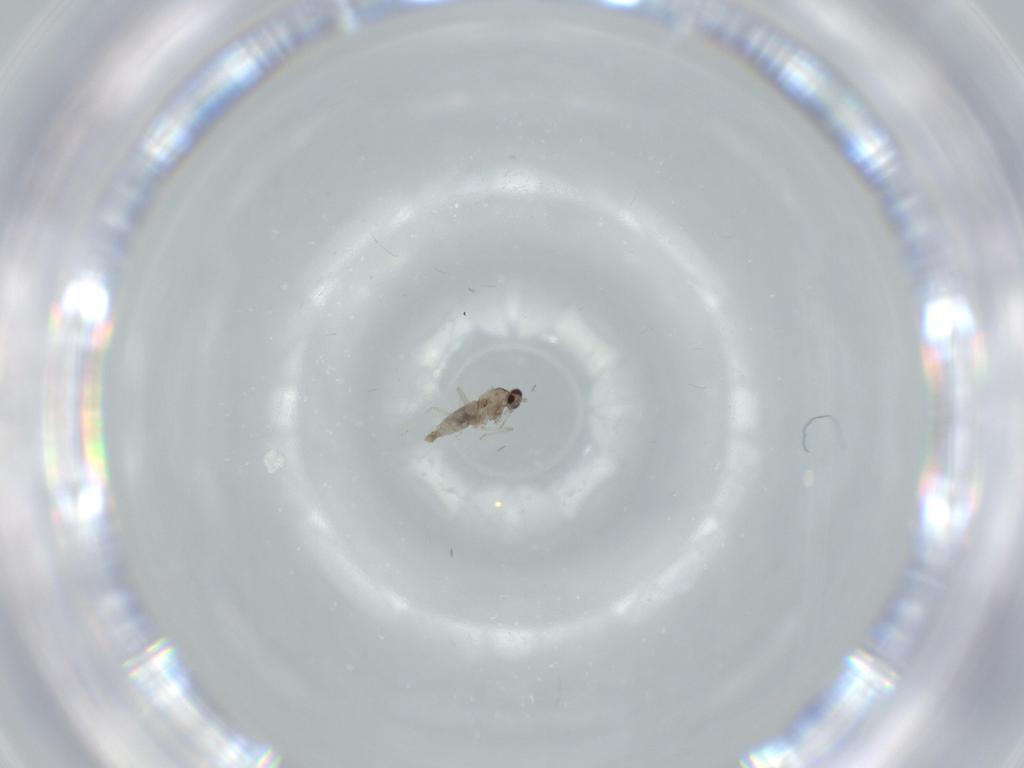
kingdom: Animalia
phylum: Arthropoda
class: Insecta
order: Diptera
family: Cecidomyiidae
